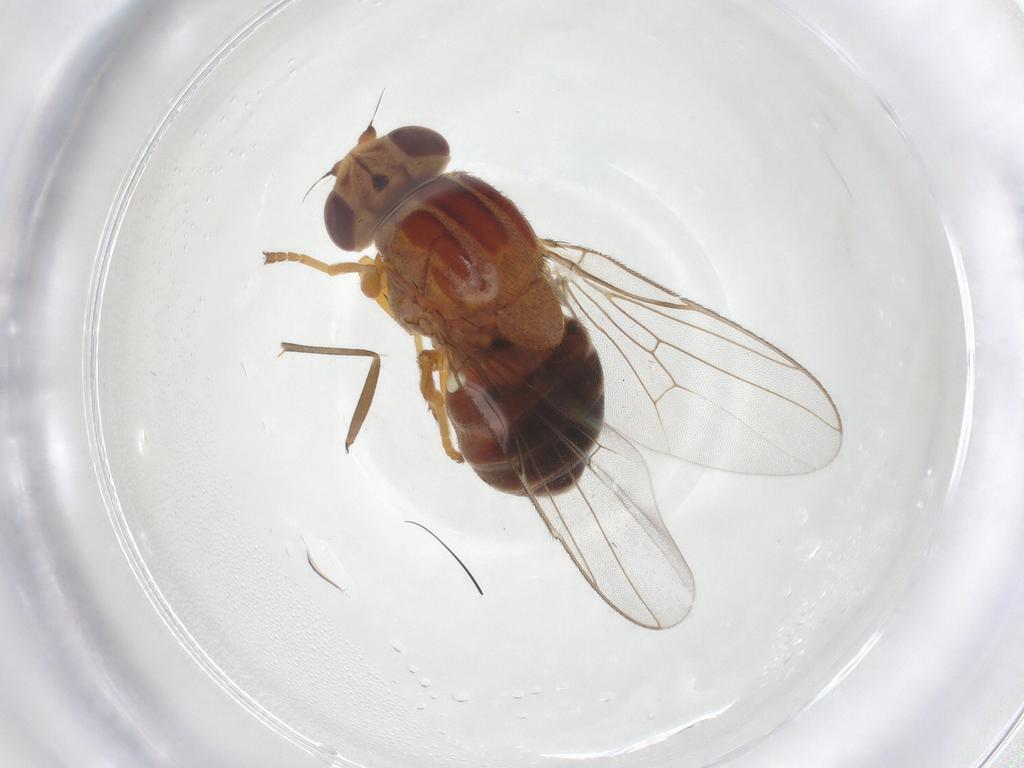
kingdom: Animalia
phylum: Arthropoda
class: Insecta
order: Diptera
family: Chloropidae
